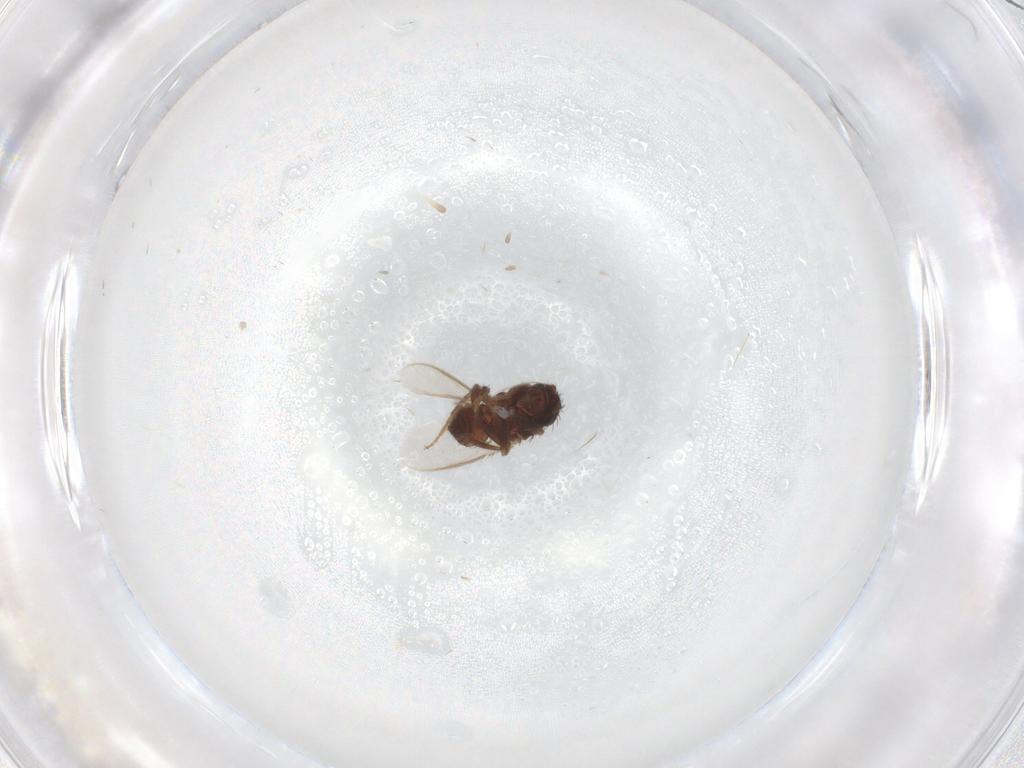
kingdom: Animalia
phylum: Arthropoda
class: Insecta
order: Diptera
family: Sphaeroceridae
